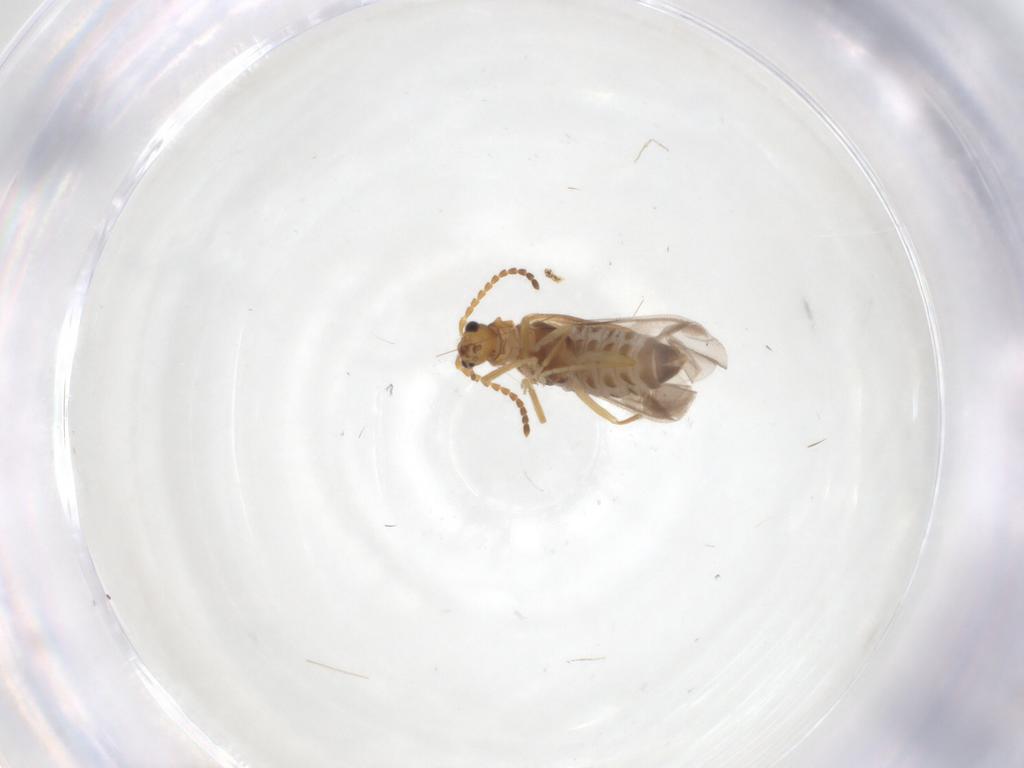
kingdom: Animalia
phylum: Arthropoda
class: Insecta
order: Coleoptera
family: Cantharidae
